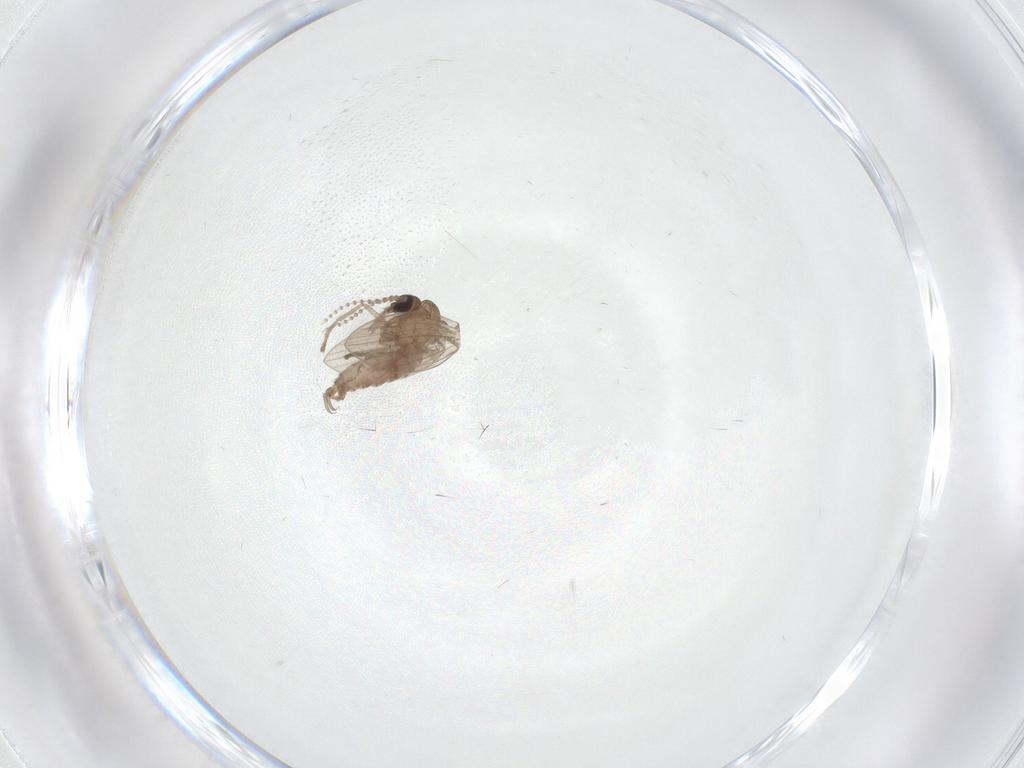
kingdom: Animalia
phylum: Arthropoda
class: Insecta
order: Diptera
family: Psychodidae
